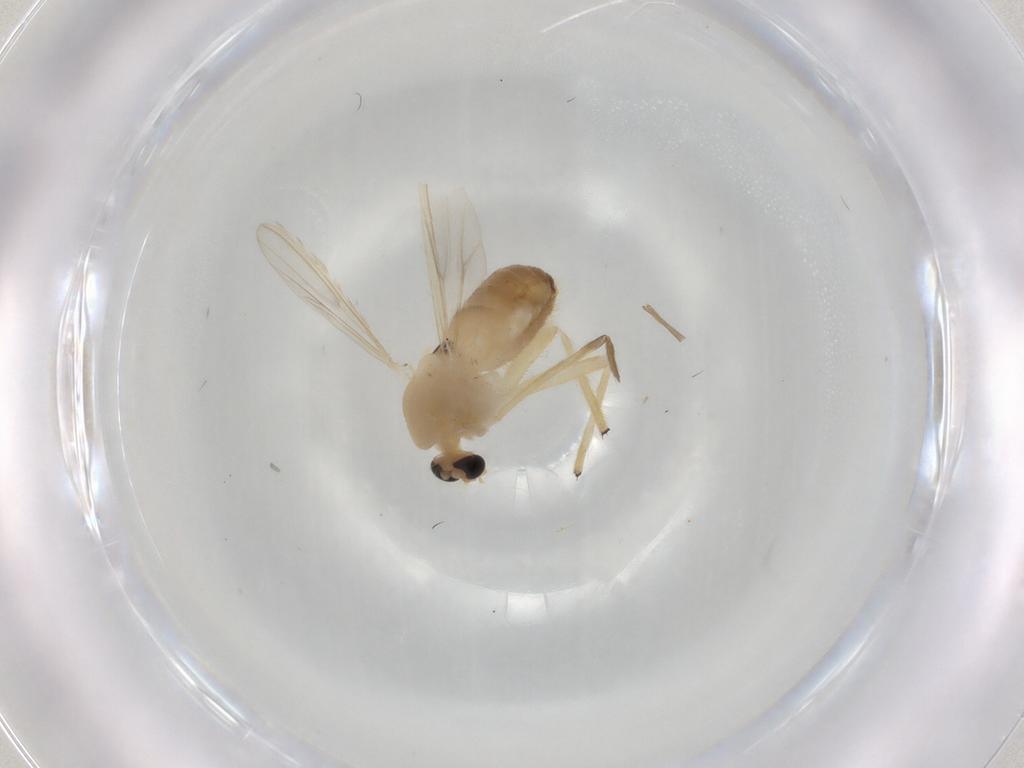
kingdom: Animalia
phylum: Arthropoda
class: Insecta
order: Diptera
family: Chironomidae
